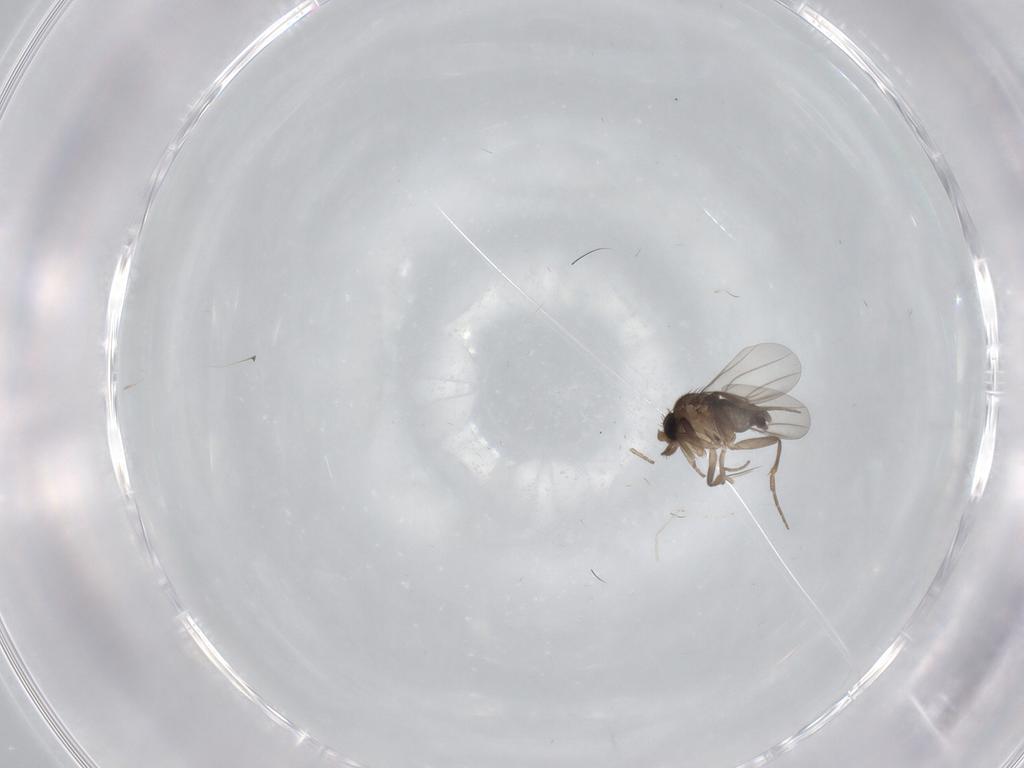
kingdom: Animalia
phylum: Arthropoda
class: Insecta
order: Diptera
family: Phoridae
